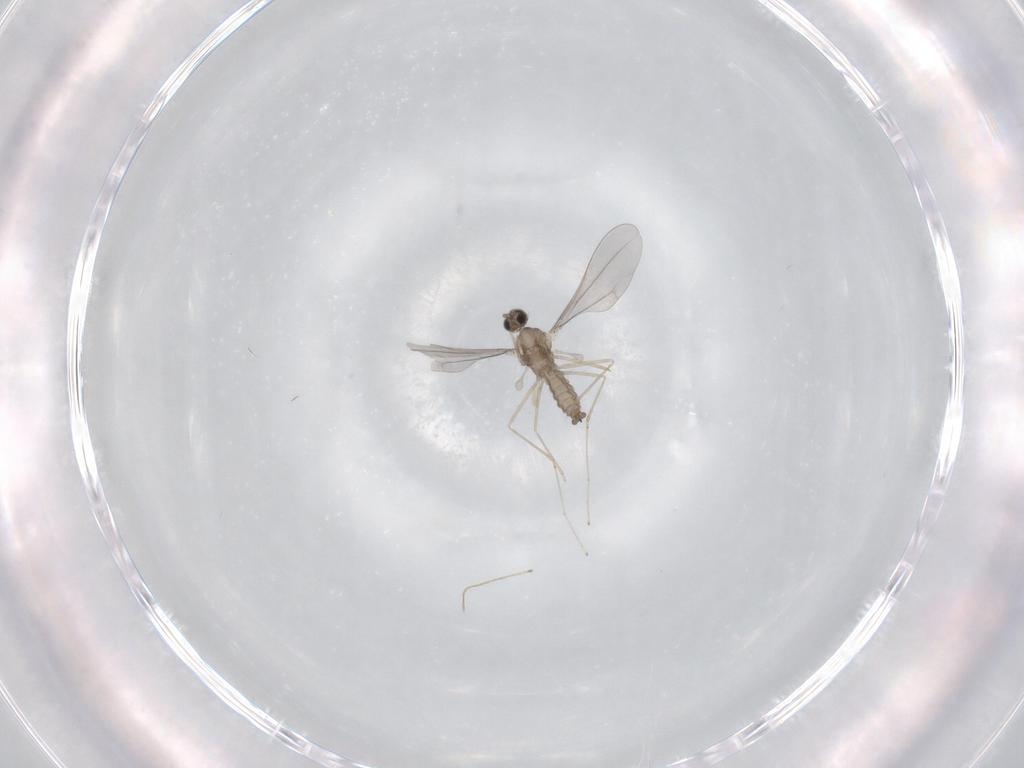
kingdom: Animalia
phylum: Arthropoda
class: Insecta
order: Diptera
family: Cecidomyiidae
